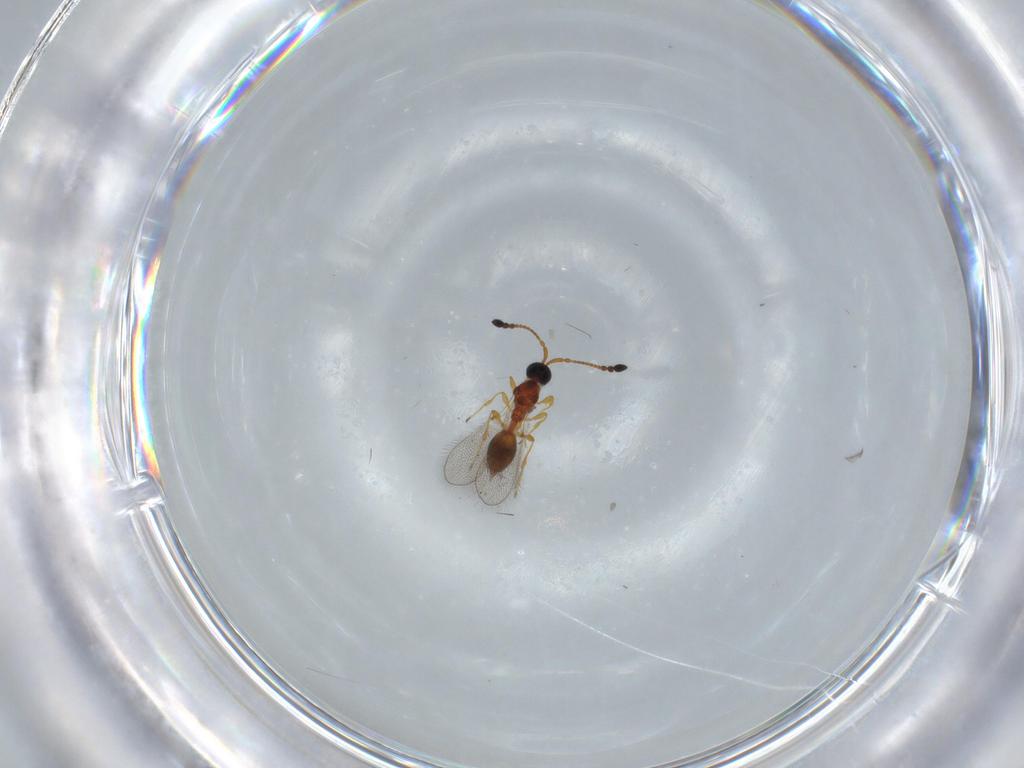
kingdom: Animalia
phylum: Arthropoda
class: Insecta
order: Hymenoptera
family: Diapriidae
